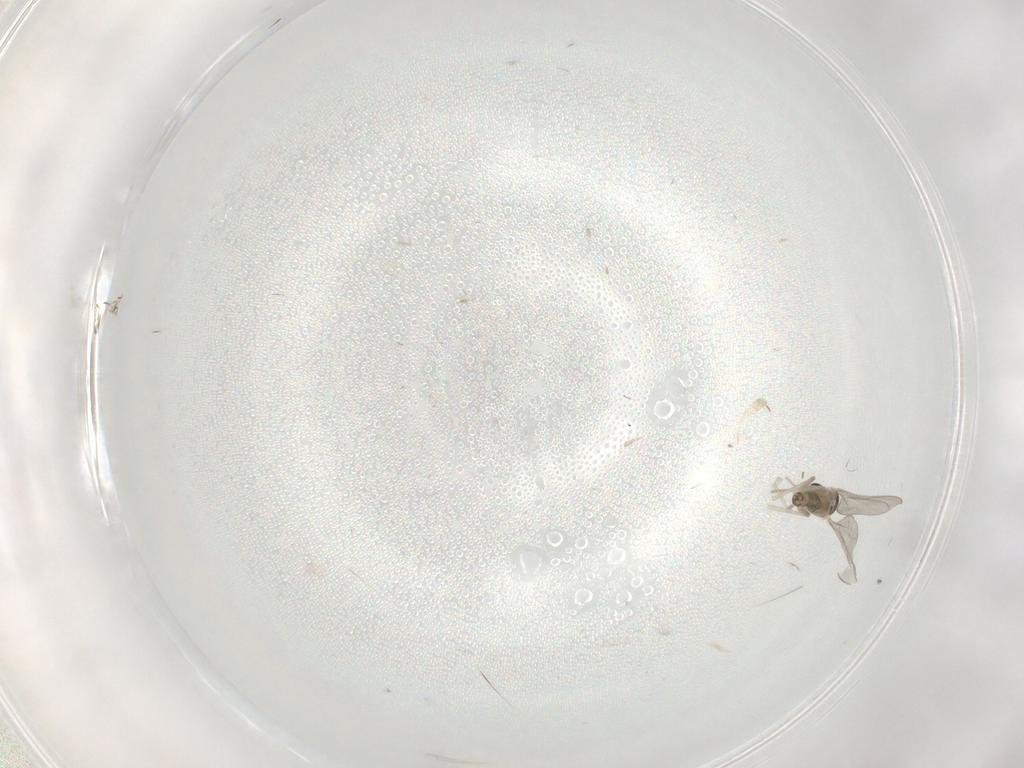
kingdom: Animalia
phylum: Arthropoda
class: Insecta
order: Diptera
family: Cecidomyiidae
